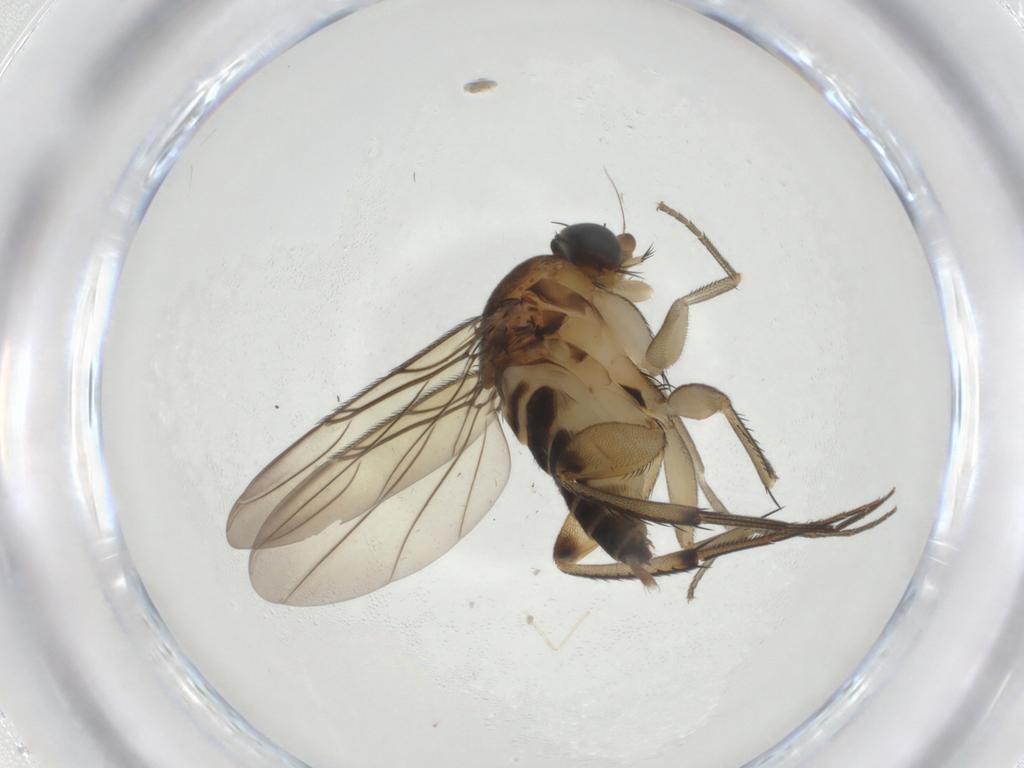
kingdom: Animalia
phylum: Arthropoda
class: Insecta
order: Diptera
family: Phoridae
